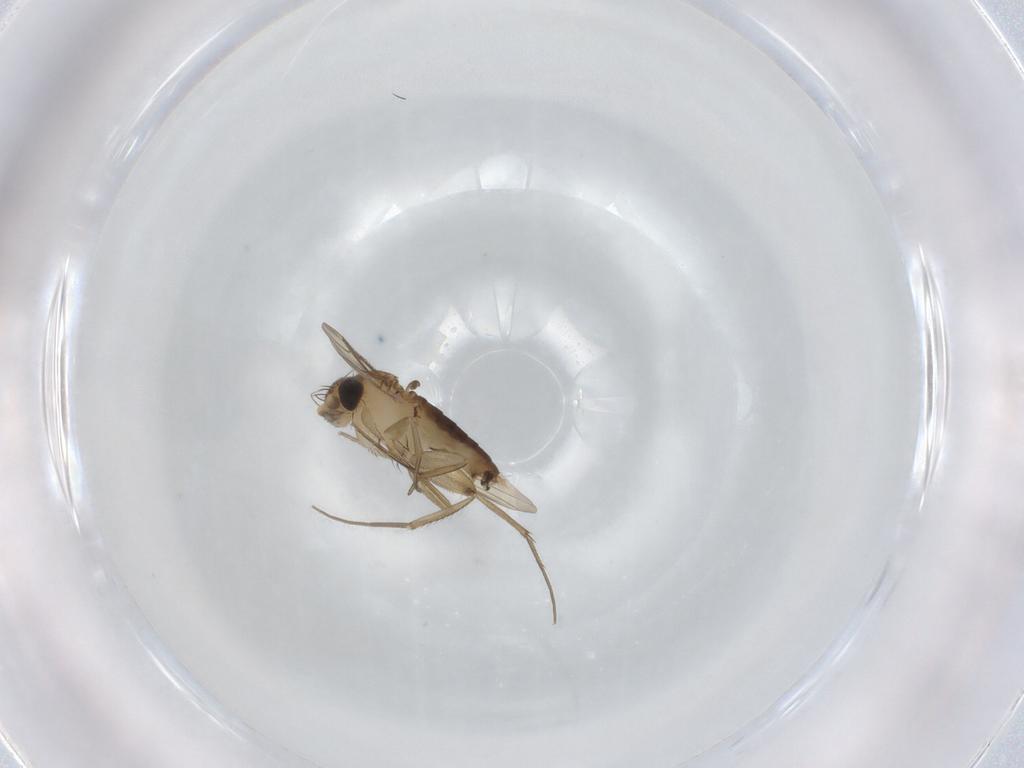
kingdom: Animalia
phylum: Arthropoda
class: Insecta
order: Diptera
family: Phoridae
